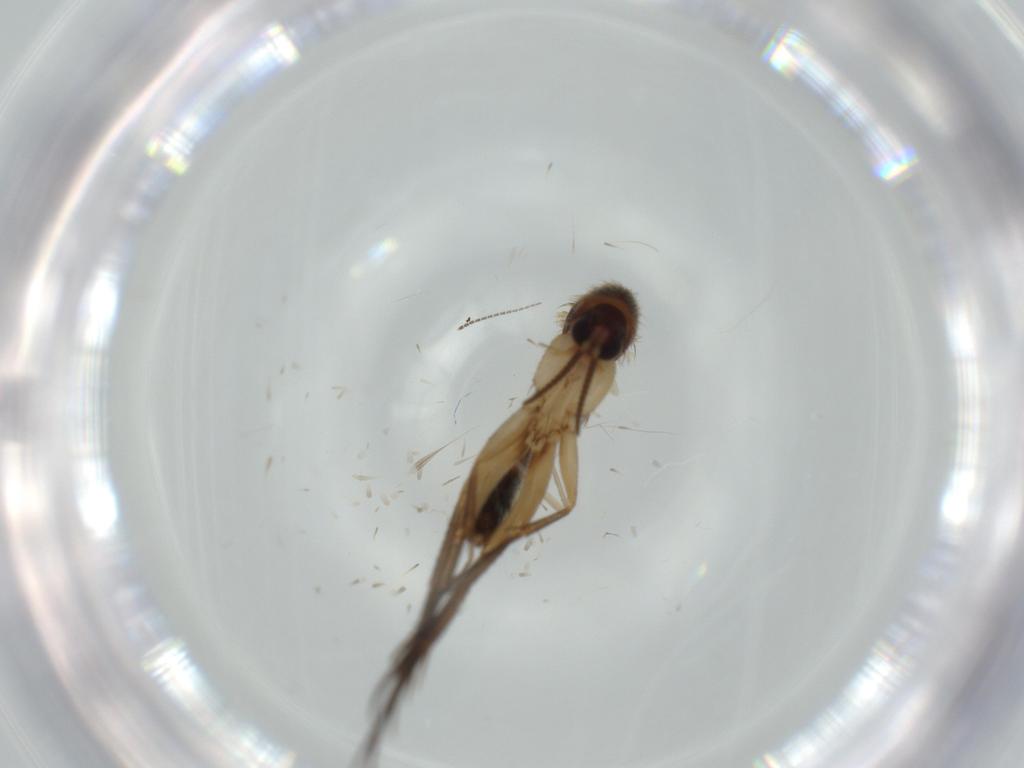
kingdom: Animalia
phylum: Arthropoda
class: Insecta
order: Diptera
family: Mycetophilidae
